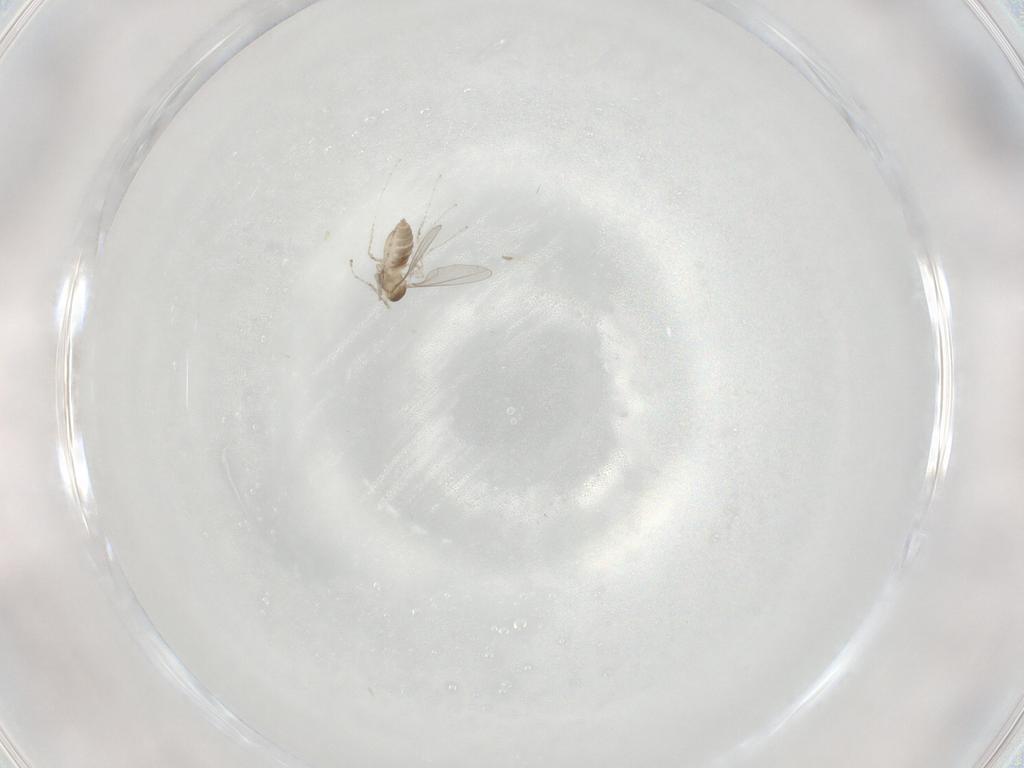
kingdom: Animalia
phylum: Arthropoda
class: Insecta
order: Diptera
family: Cecidomyiidae
